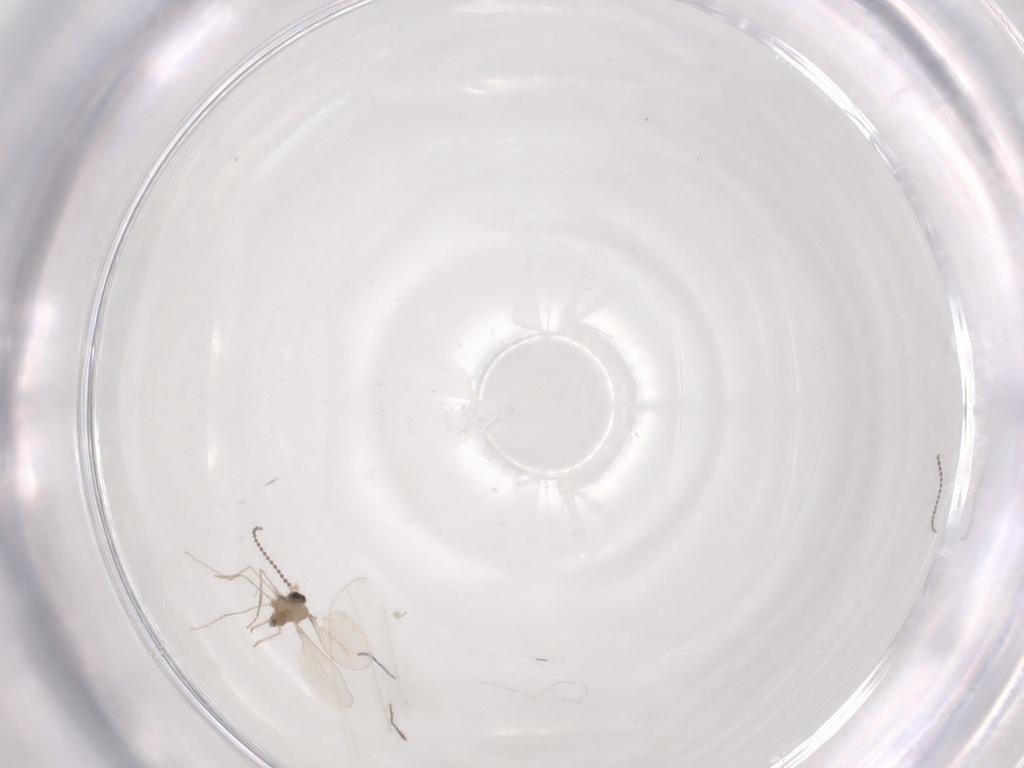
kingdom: Animalia
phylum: Arthropoda
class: Insecta
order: Diptera
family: Cecidomyiidae
